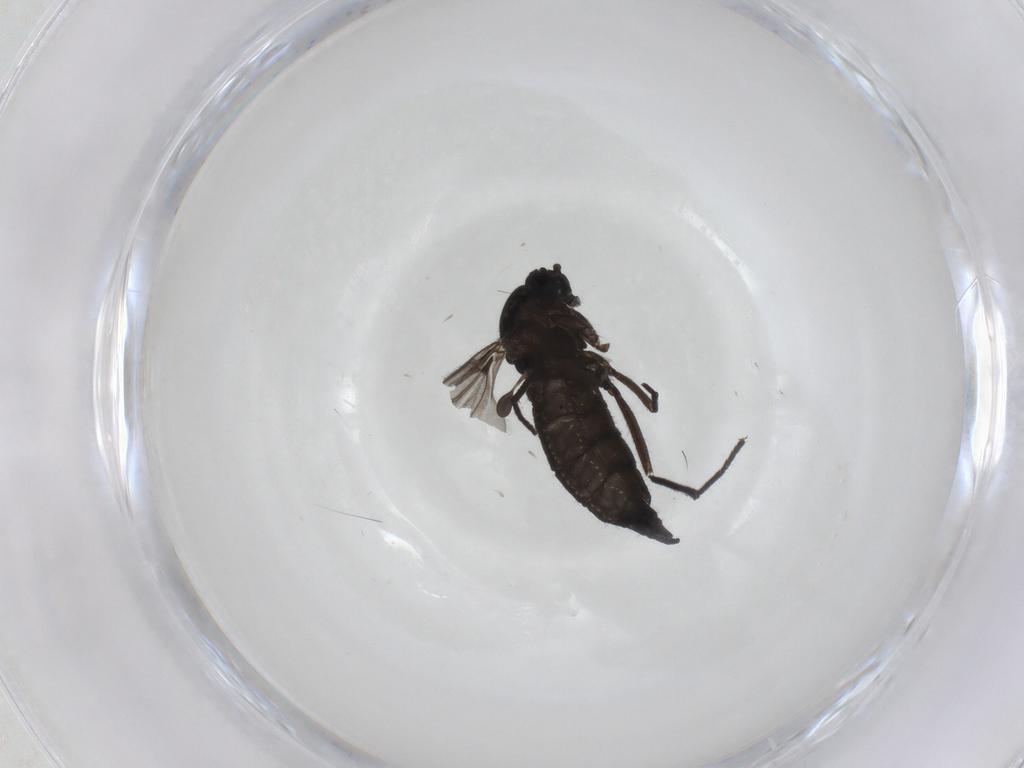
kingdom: Animalia
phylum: Arthropoda
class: Insecta
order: Diptera
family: Sciaridae
